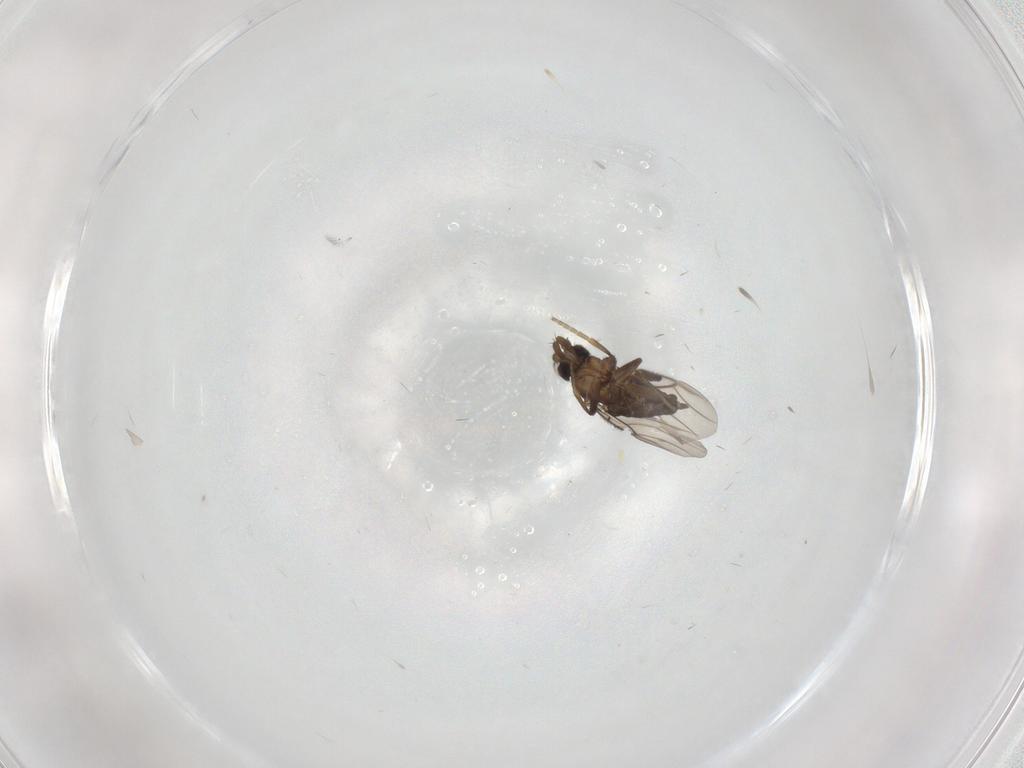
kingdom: Animalia
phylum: Arthropoda
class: Insecta
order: Diptera
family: Phoridae
